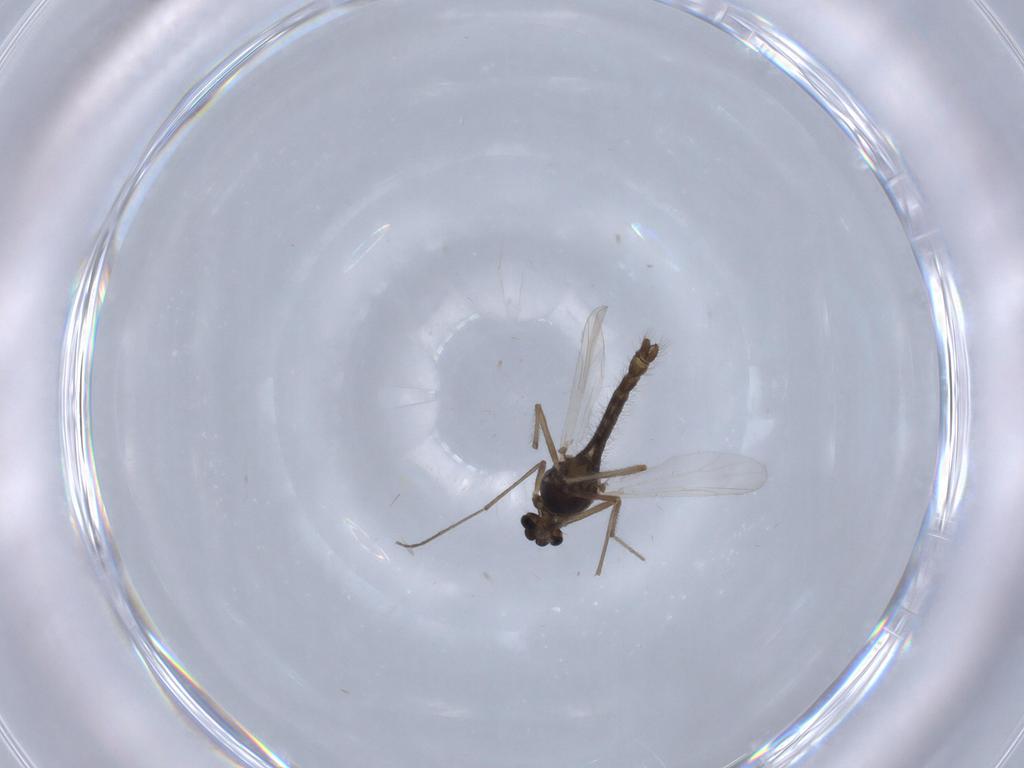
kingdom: Animalia
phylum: Arthropoda
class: Insecta
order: Diptera
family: Chironomidae
